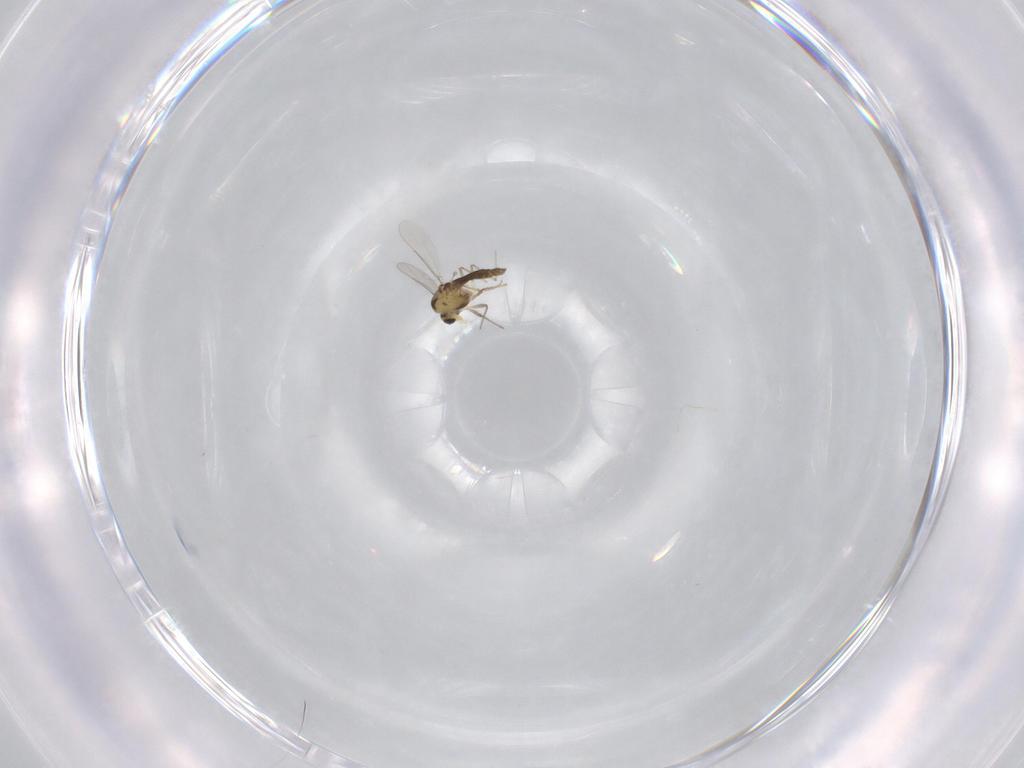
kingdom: Animalia
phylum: Arthropoda
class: Insecta
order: Diptera
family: Chironomidae
